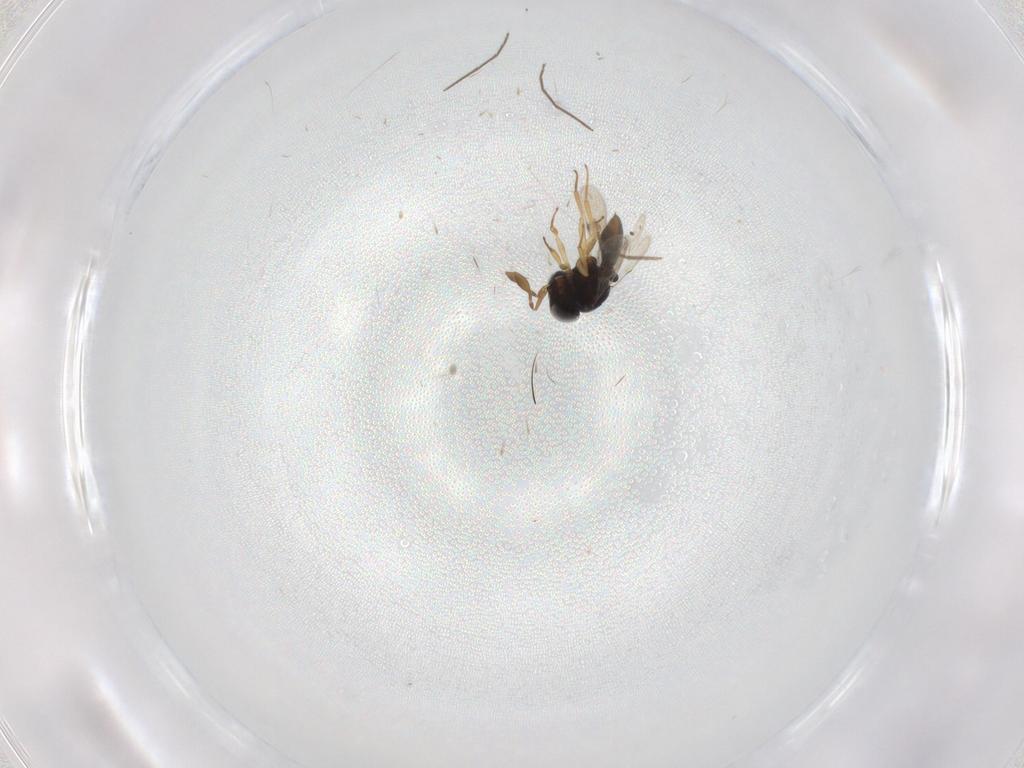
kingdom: Animalia
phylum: Arthropoda
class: Insecta
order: Hymenoptera
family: Scelionidae
